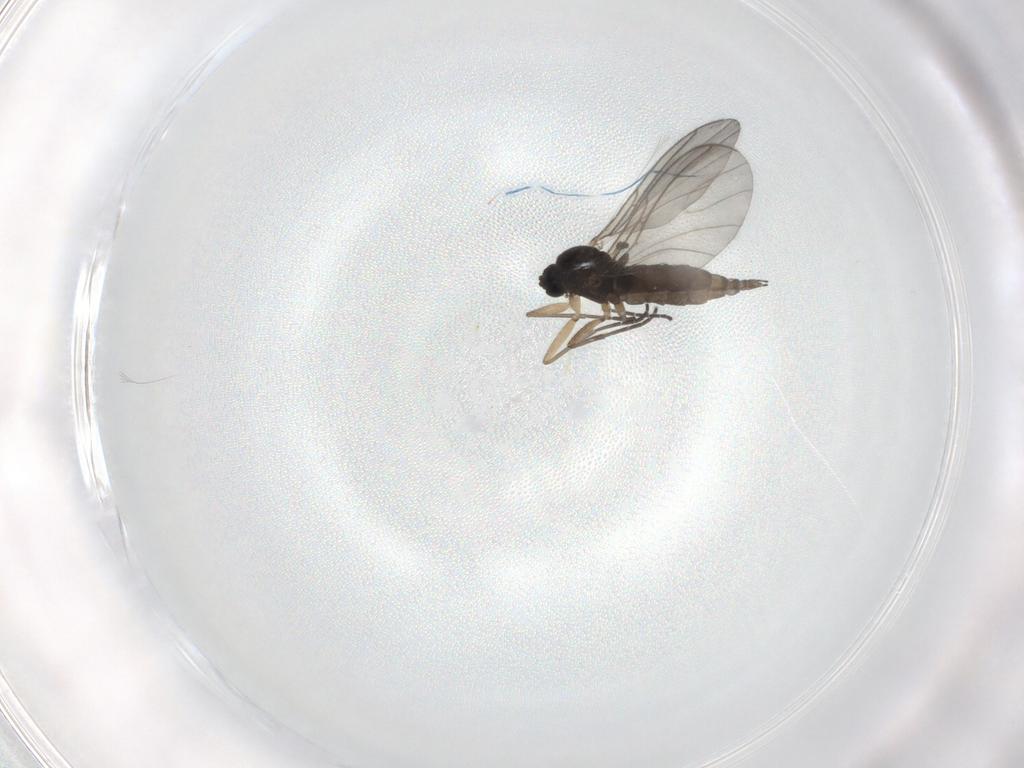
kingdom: Animalia
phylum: Arthropoda
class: Insecta
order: Diptera
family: Sciaridae
